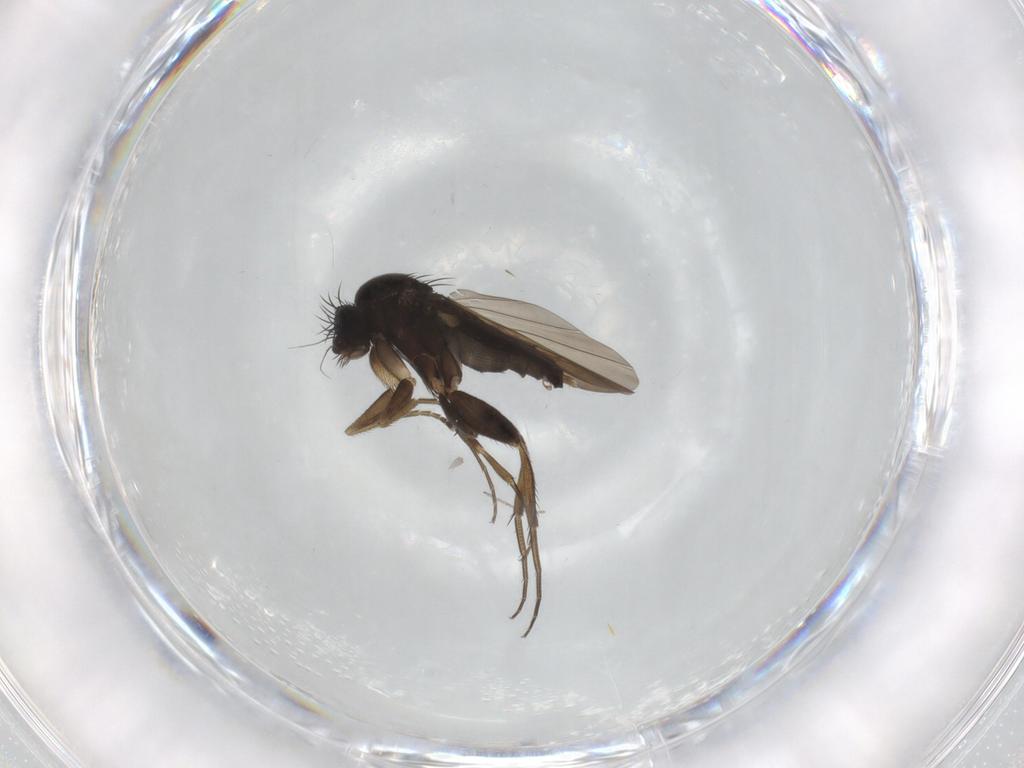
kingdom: Animalia
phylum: Arthropoda
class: Insecta
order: Diptera
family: Phoridae
